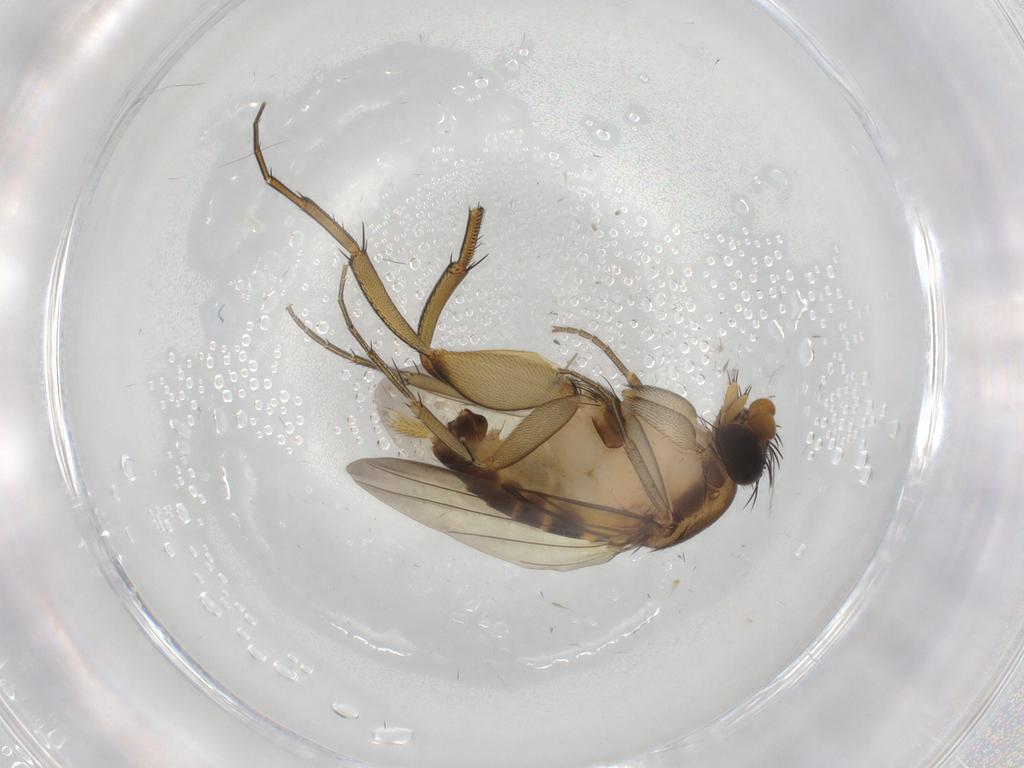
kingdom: Animalia
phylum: Arthropoda
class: Insecta
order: Diptera
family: Phoridae
